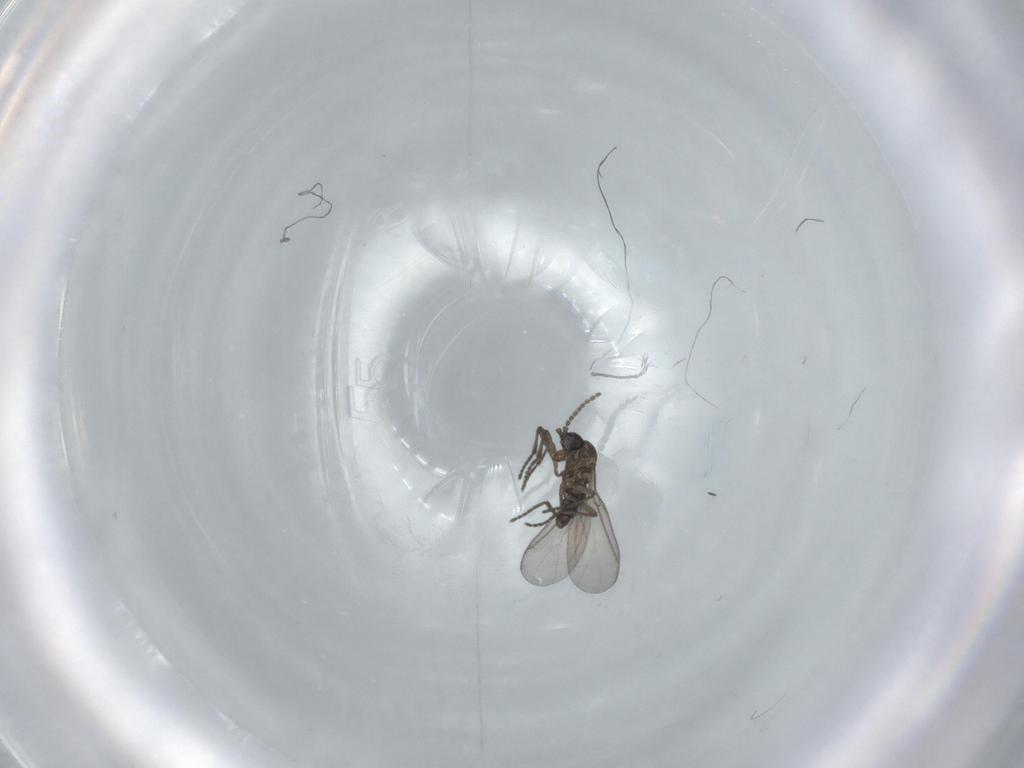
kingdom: Animalia
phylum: Arthropoda
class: Insecta
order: Diptera
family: Sciaridae
